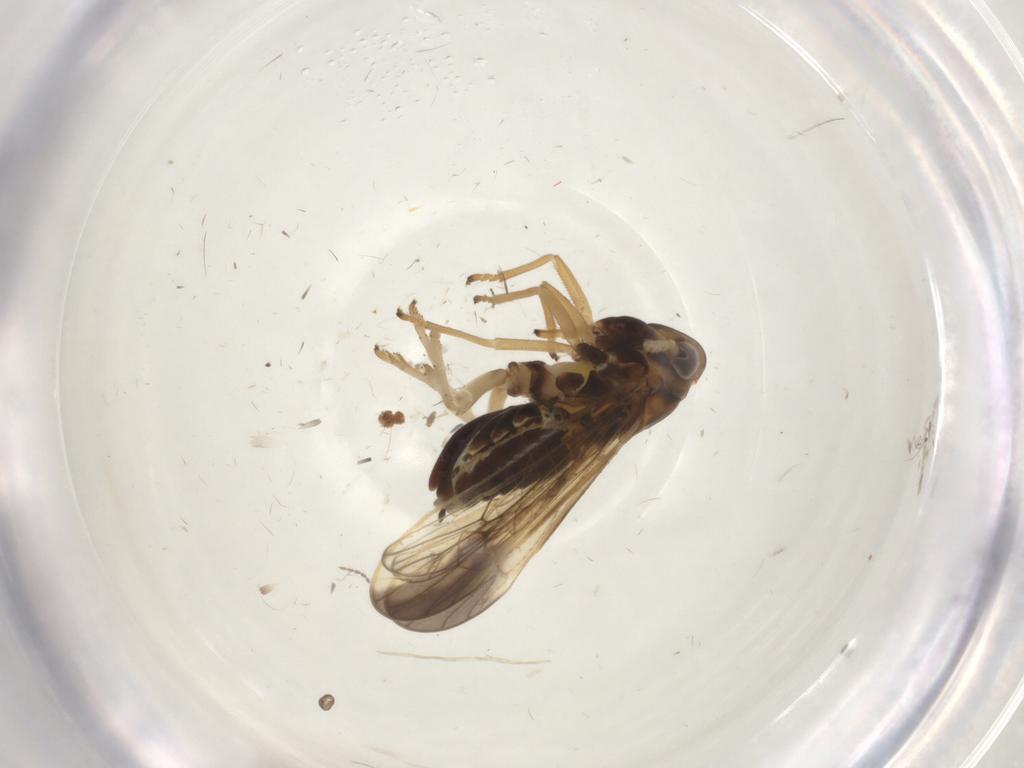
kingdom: Animalia
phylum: Arthropoda
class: Insecta
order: Hemiptera
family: Delphacidae
